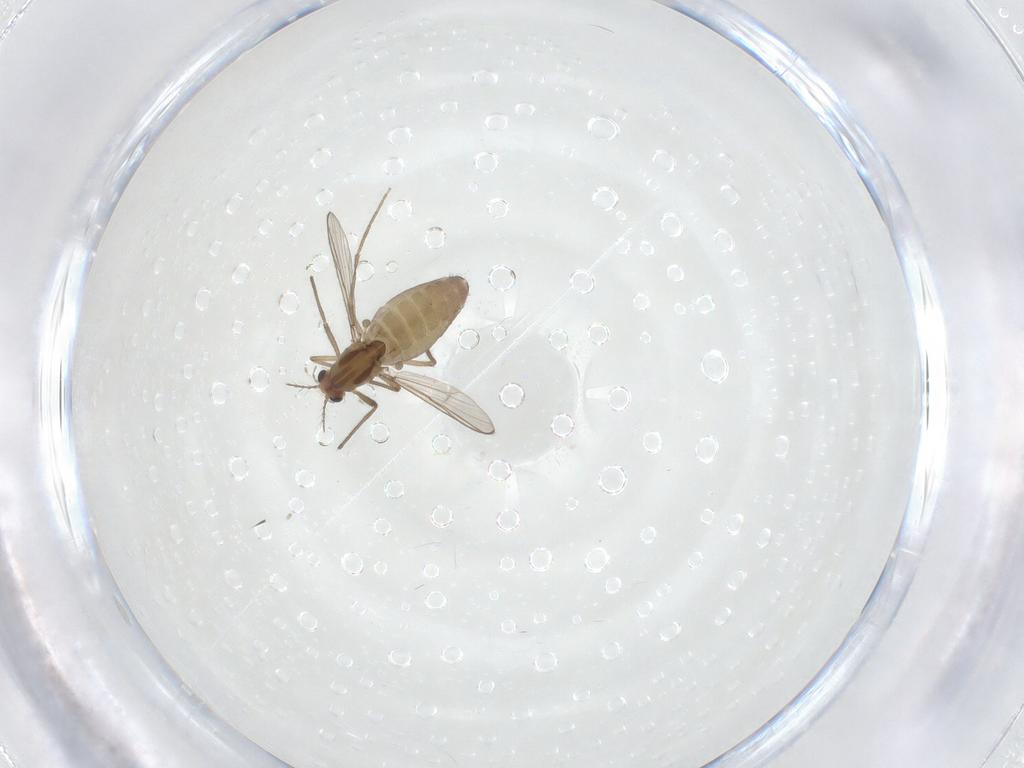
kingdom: Animalia
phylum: Arthropoda
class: Insecta
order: Diptera
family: Chironomidae
